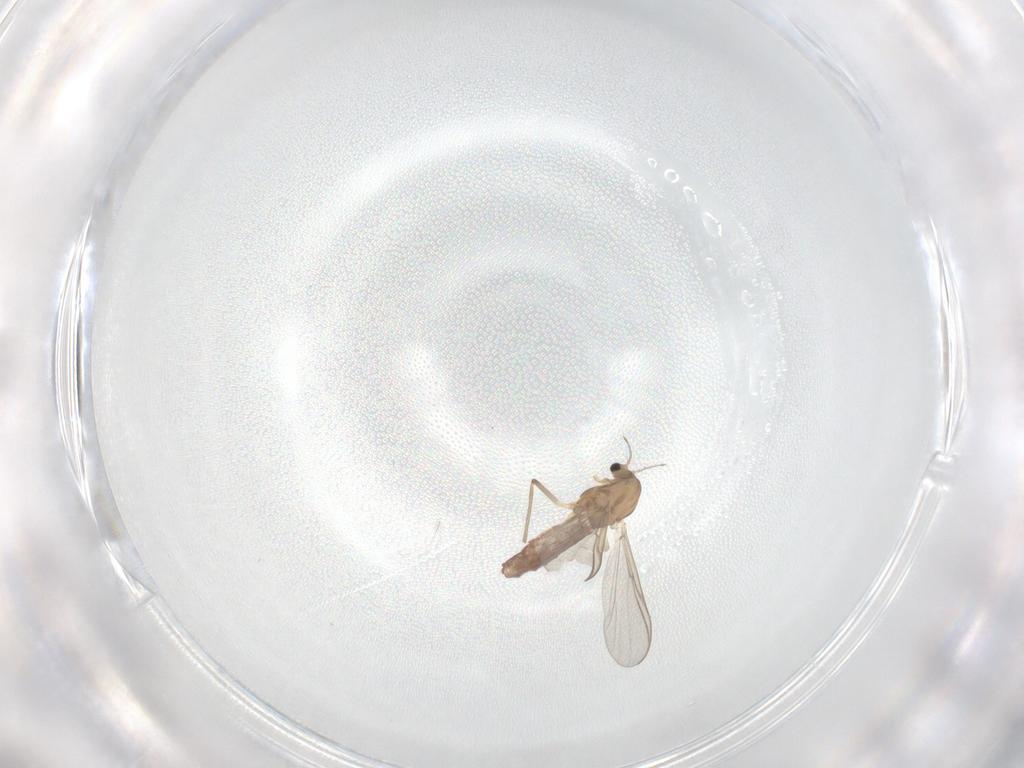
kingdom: Animalia
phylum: Arthropoda
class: Insecta
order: Diptera
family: Chironomidae
